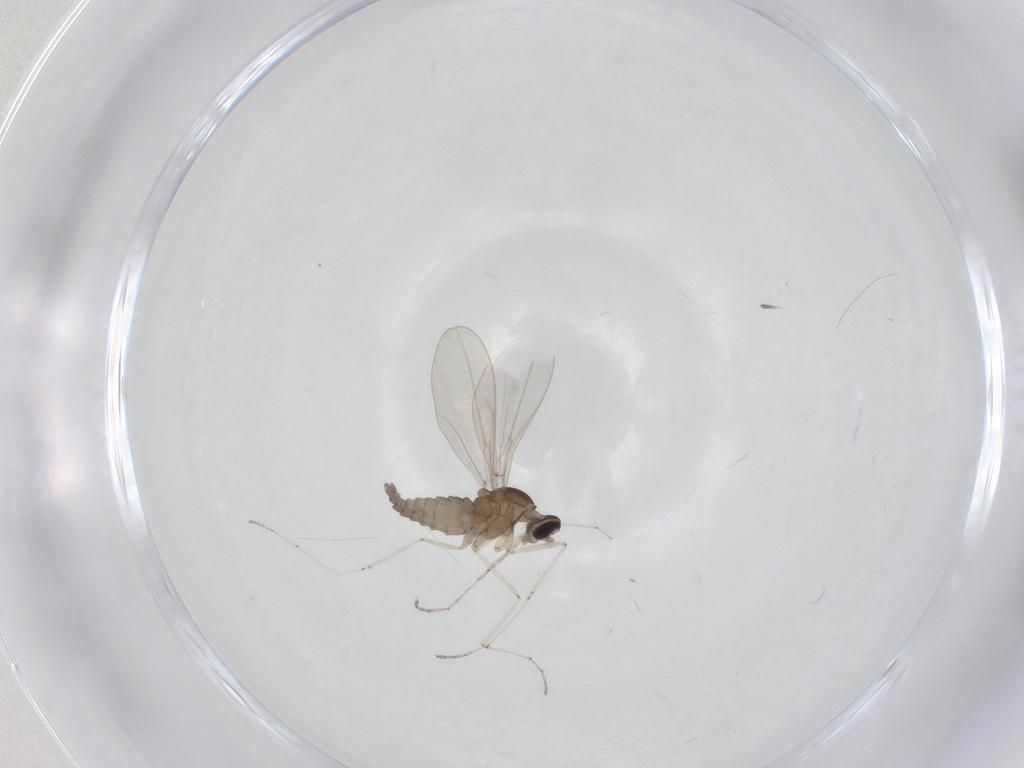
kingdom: Animalia
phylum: Arthropoda
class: Insecta
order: Diptera
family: Cecidomyiidae
